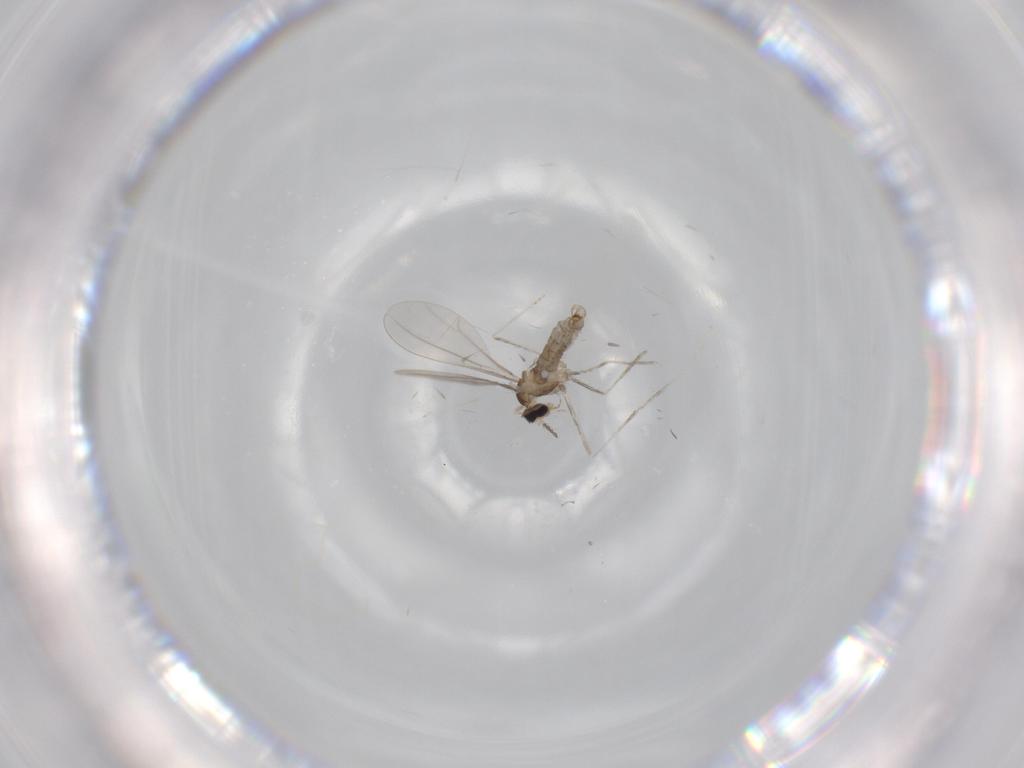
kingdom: Animalia
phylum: Arthropoda
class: Insecta
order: Diptera
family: Cecidomyiidae
